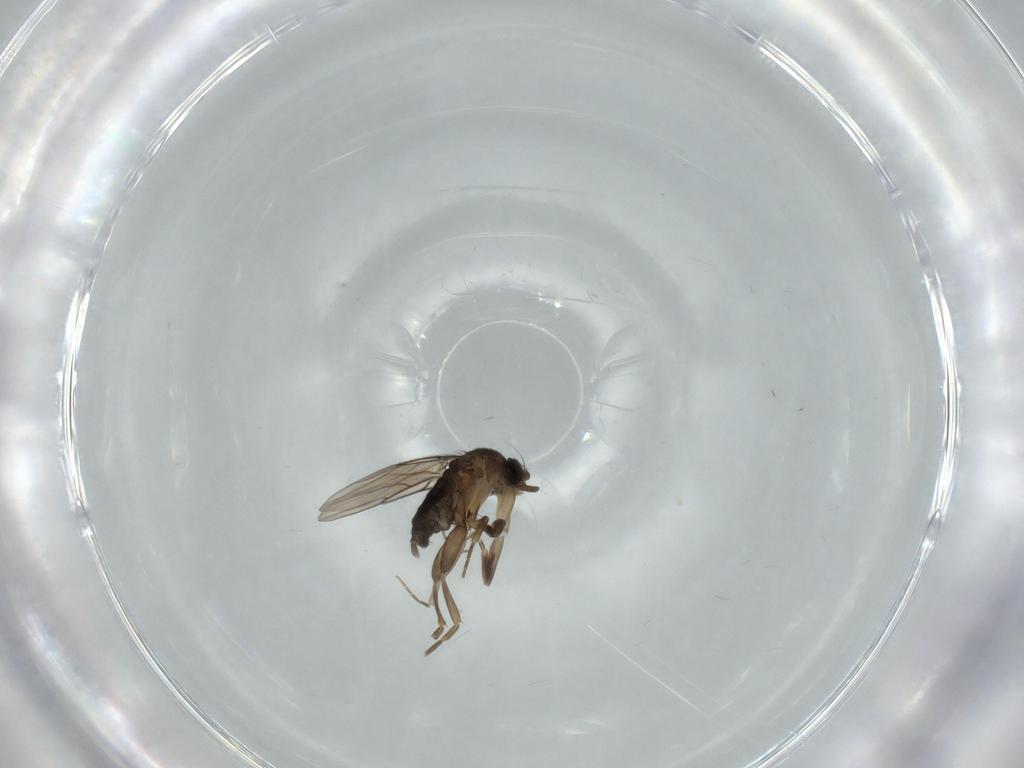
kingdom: Animalia
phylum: Arthropoda
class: Insecta
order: Diptera
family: Phoridae
